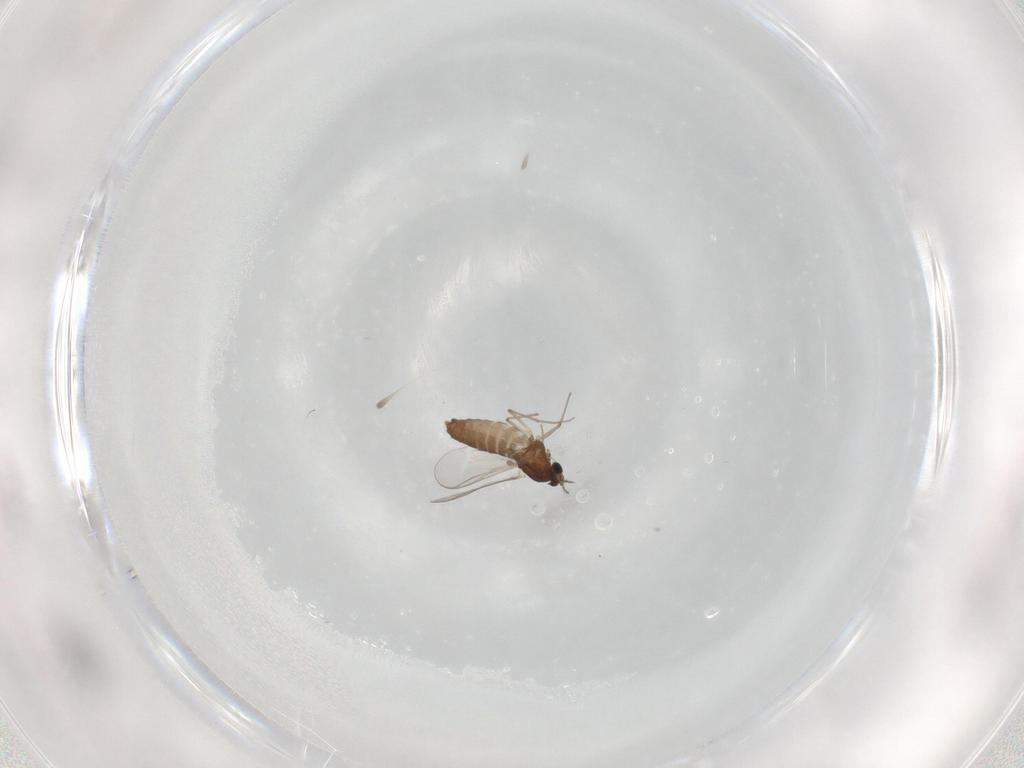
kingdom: Animalia
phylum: Arthropoda
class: Insecta
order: Diptera
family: Chironomidae
